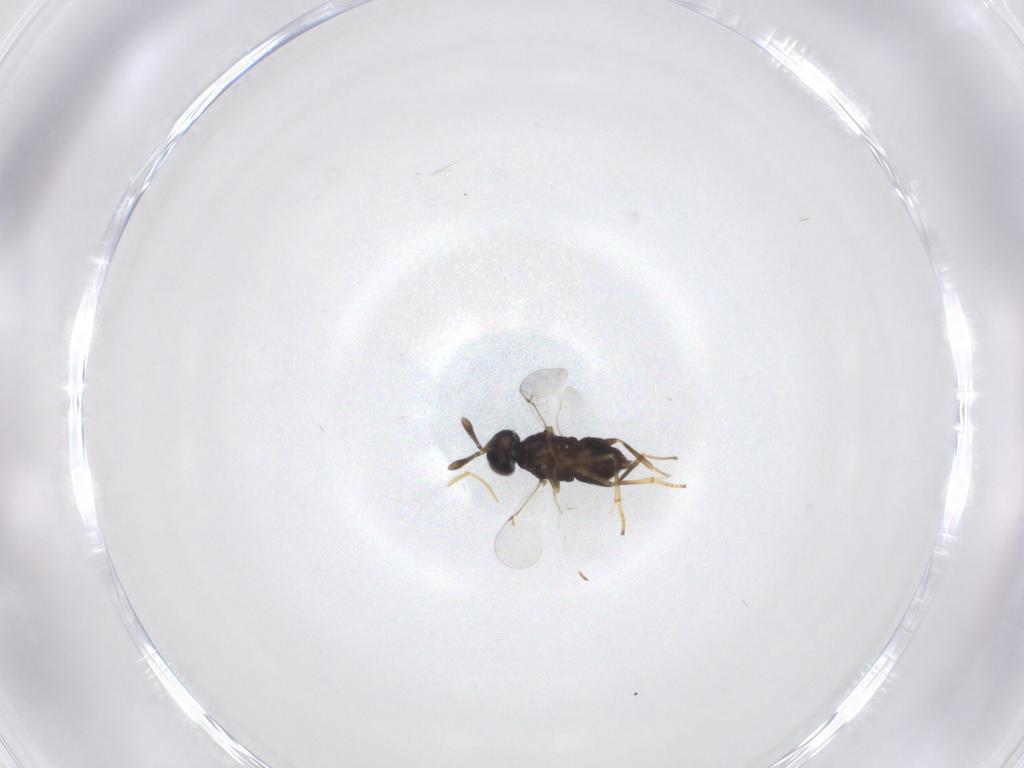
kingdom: Animalia
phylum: Arthropoda
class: Insecta
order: Hymenoptera
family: Encyrtidae
